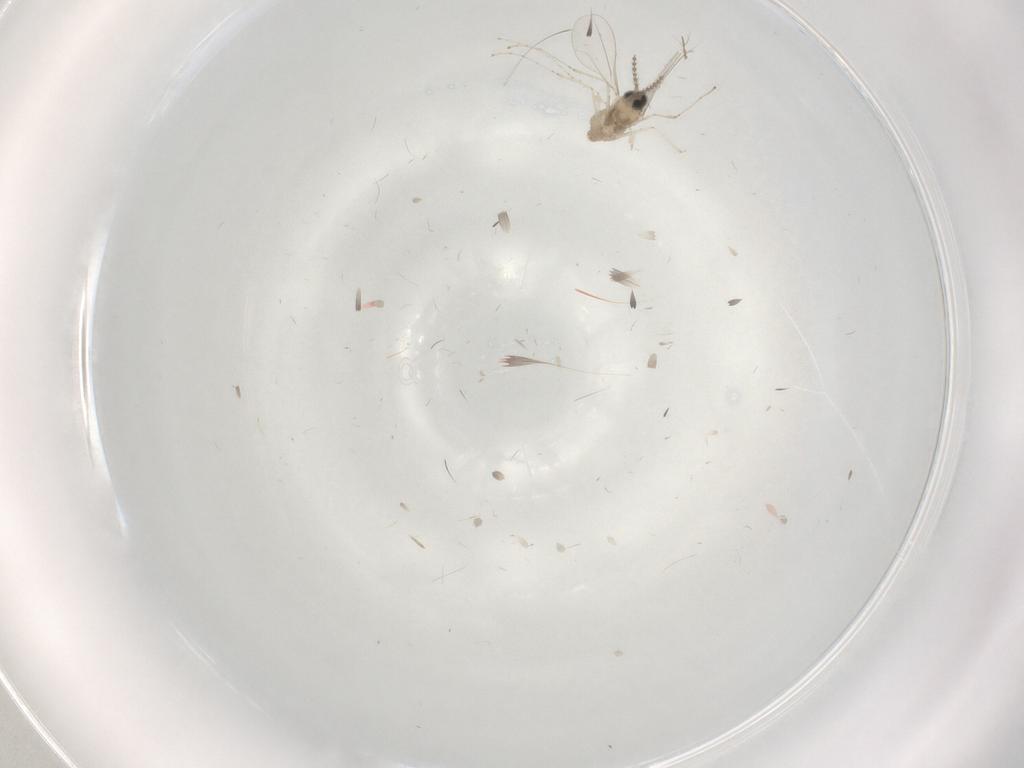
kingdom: Animalia
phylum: Arthropoda
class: Insecta
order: Diptera
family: Chironomidae
